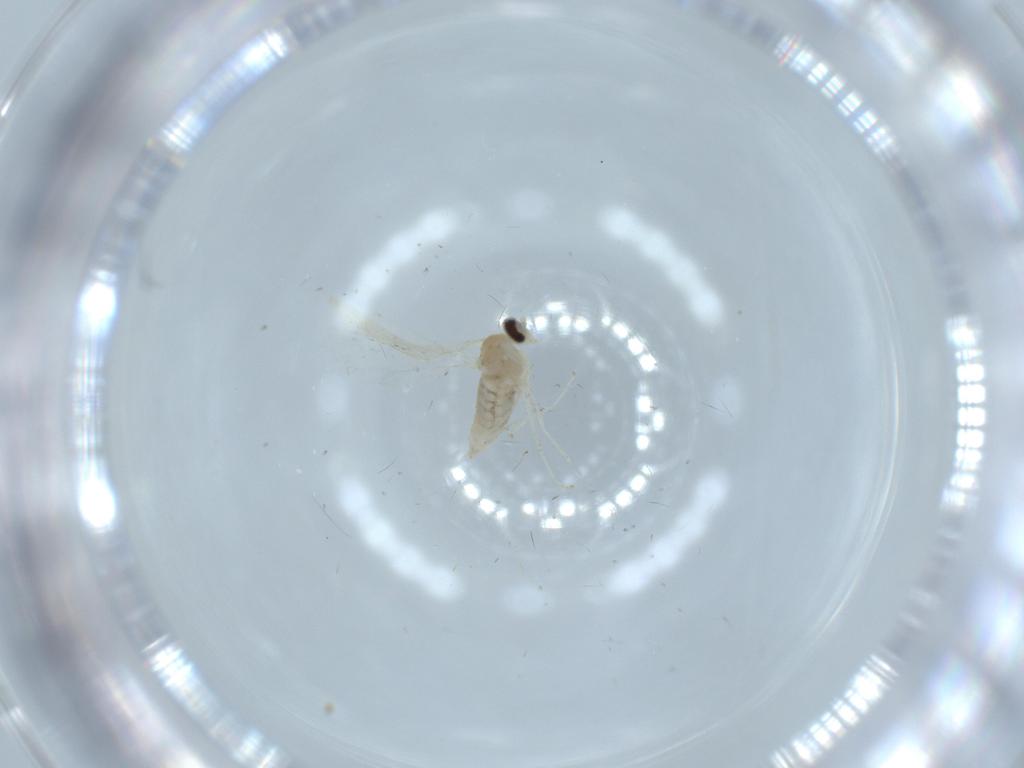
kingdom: Animalia
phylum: Arthropoda
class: Insecta
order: Diptera
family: Cecidomyiidae
